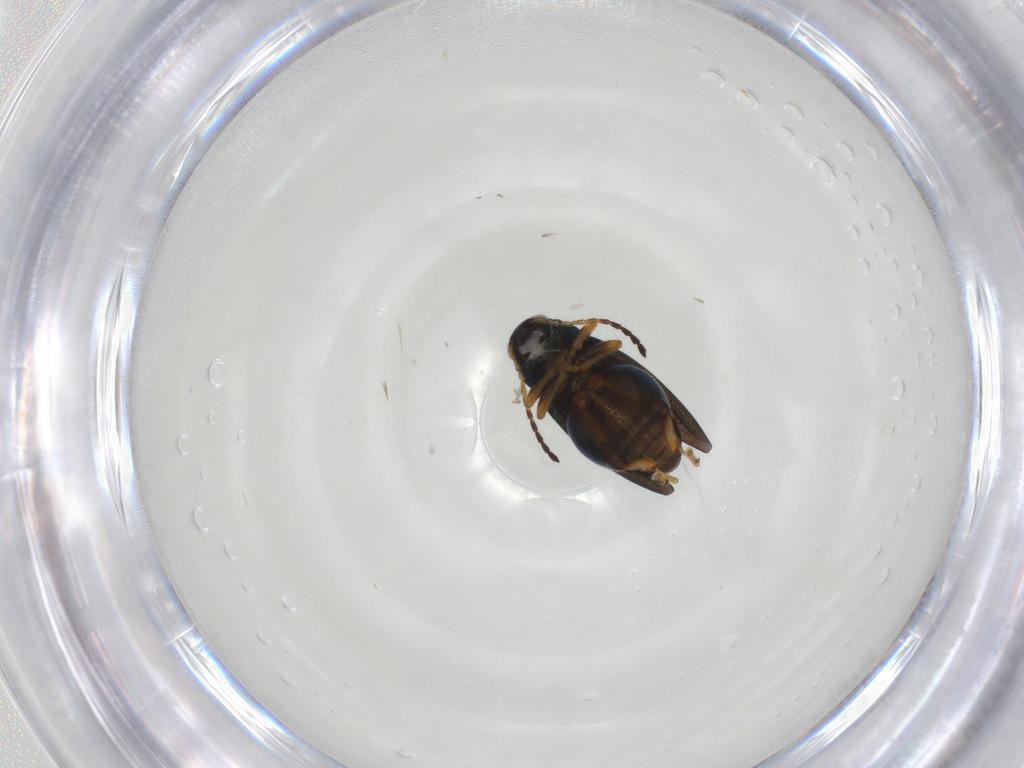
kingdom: Animalia
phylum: Arthropoda
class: Insecta
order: Coleoptera
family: Chrysomelidae
